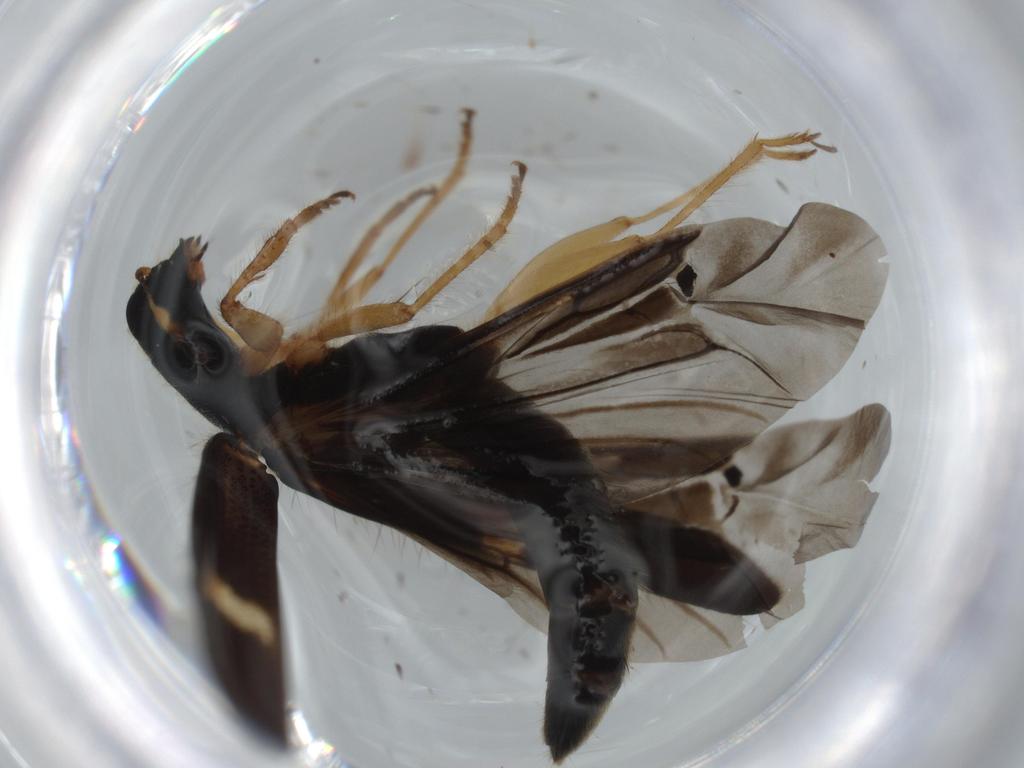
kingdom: Animalia
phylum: Arthropoda
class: Insecta
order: Coleoptera
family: Cleridae
